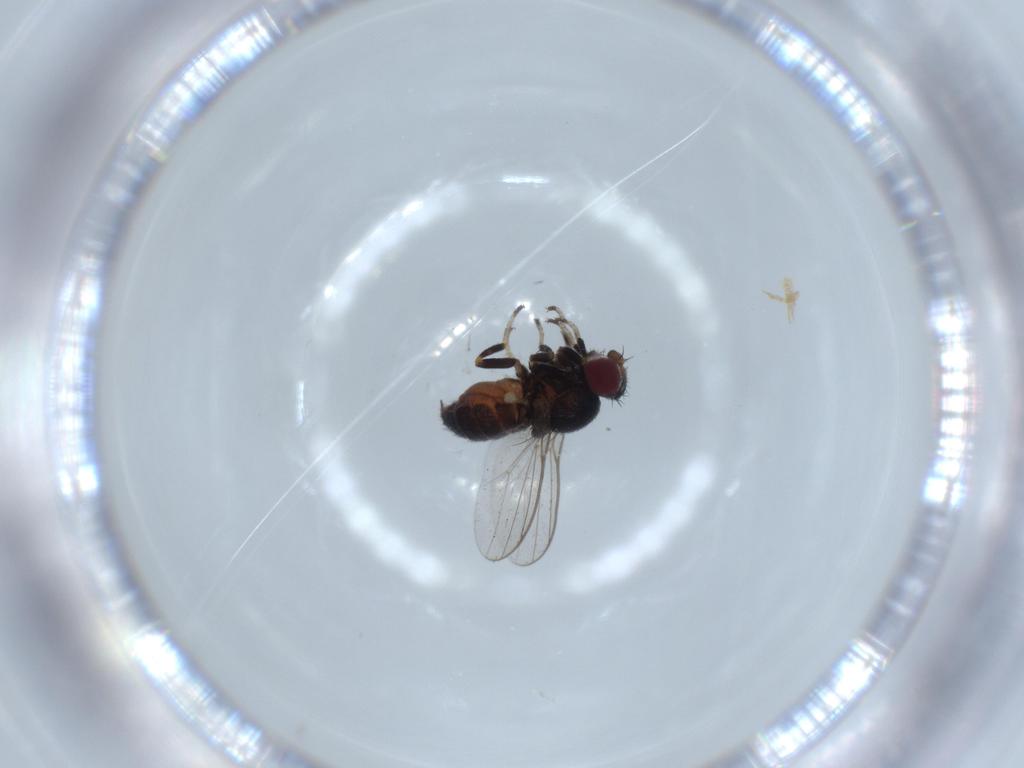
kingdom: Animalia
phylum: Arthropoda
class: Insecta
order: Diptera
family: Chloropidae
